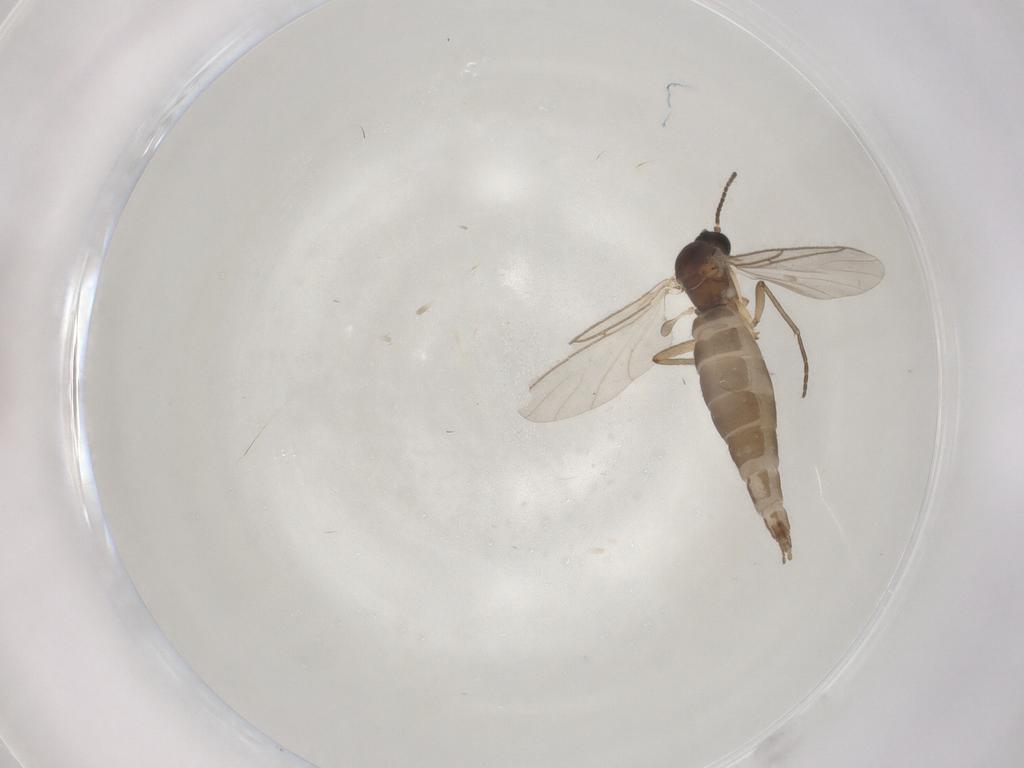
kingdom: Animalia
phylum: Arthropoda
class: Insecta
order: Diptera
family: Sciaridae
